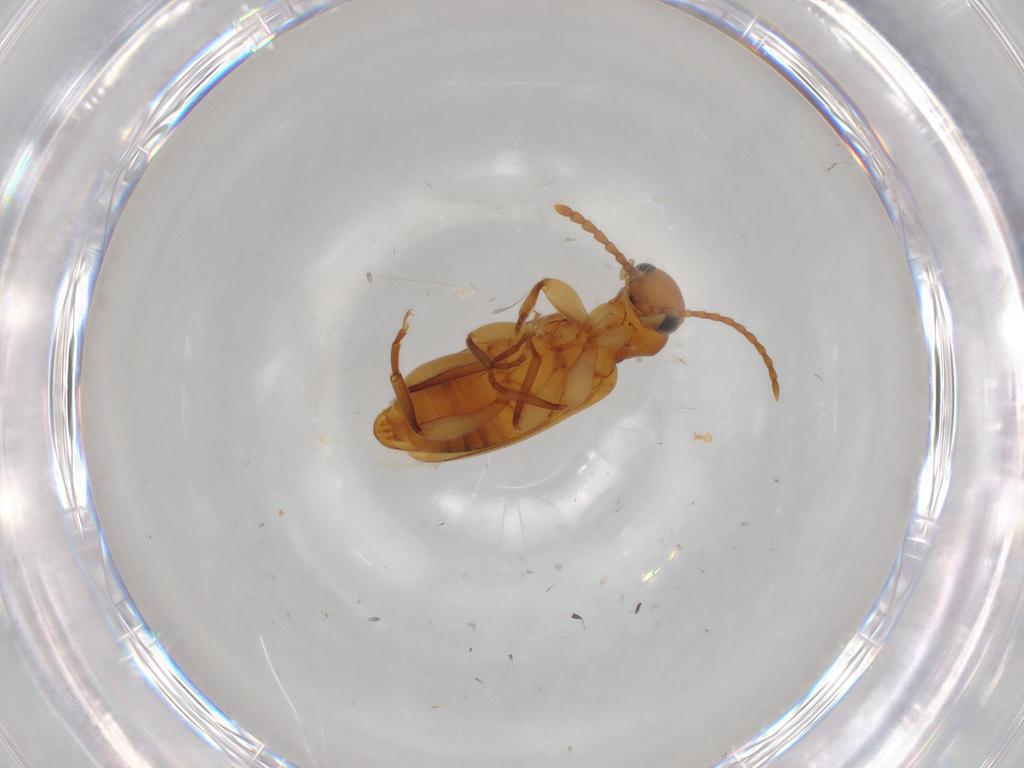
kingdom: Animalia
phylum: Arthropoda
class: Insecta
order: Coleoptera
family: Anthicidae
